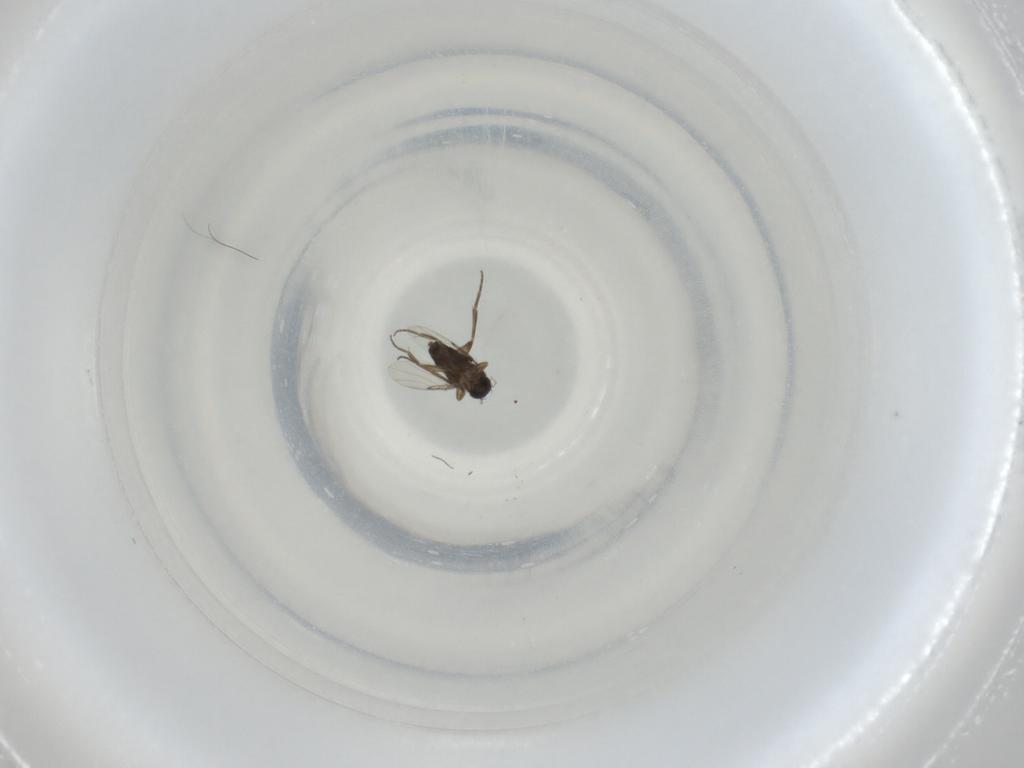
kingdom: Animalia
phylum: Arthropoda
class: Insecta
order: Diptera
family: Phoridae
